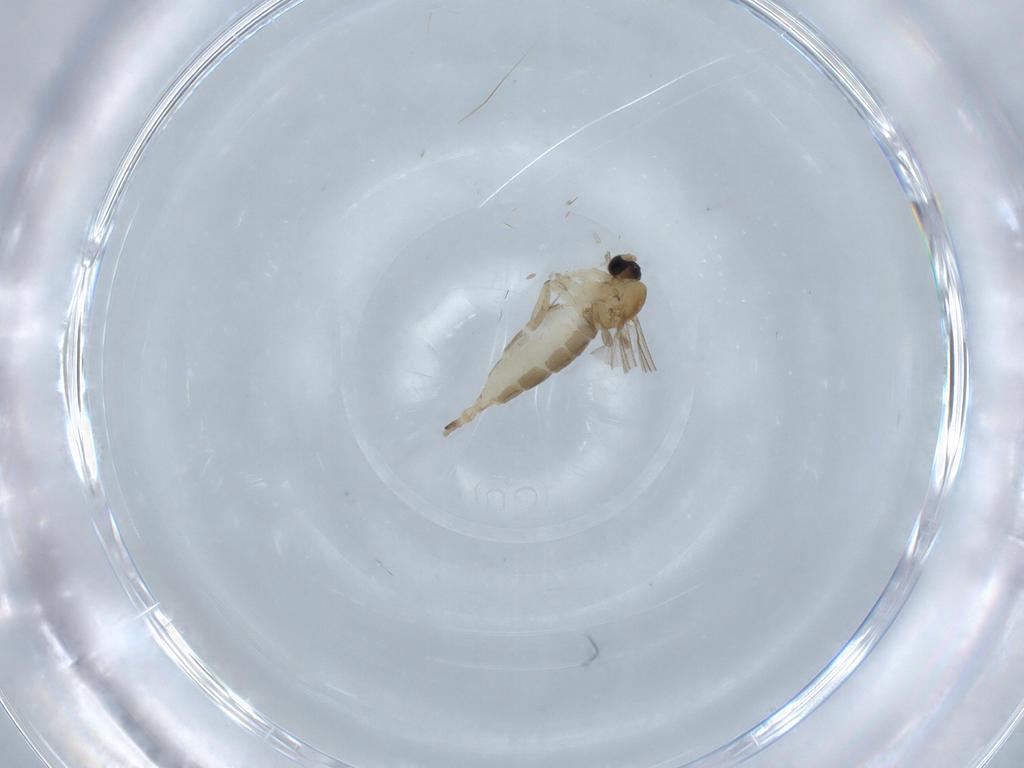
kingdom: Animalia
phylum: Arthropoda
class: Insecta
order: Diptera
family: Sciaridae
